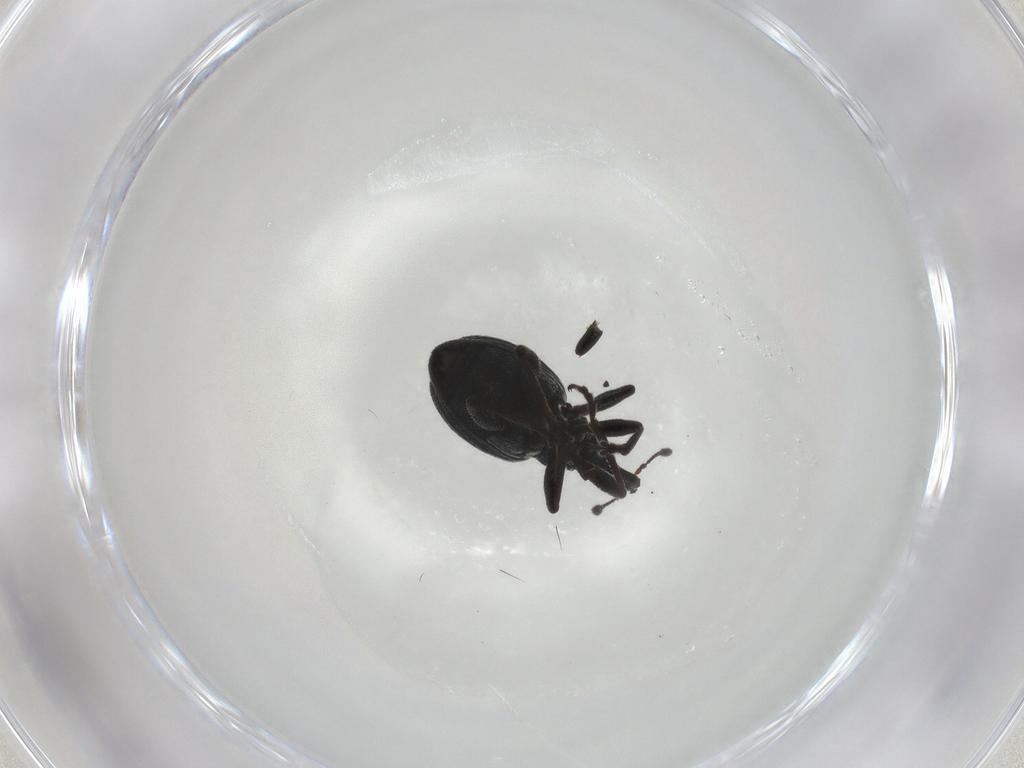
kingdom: Animalia
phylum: Arthropoda
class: Insecta
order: Coleoptera
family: Brentidae
